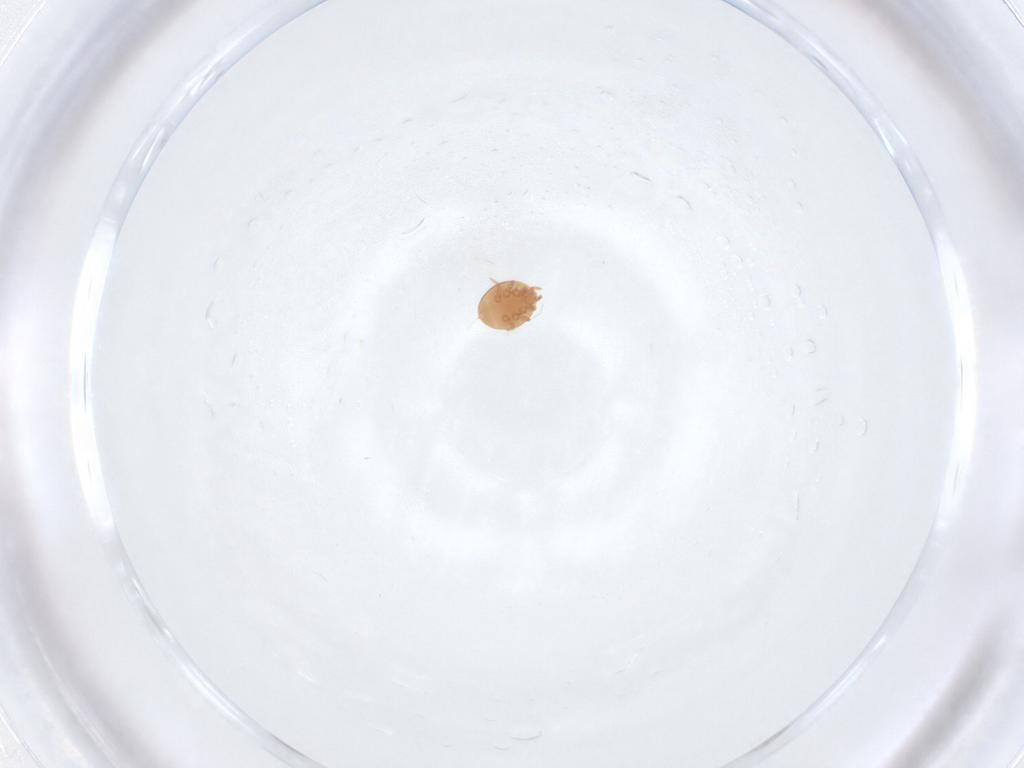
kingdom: Animalia
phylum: Arthropoda
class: Arachnida
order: Mesostigmata
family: Trematuridae
